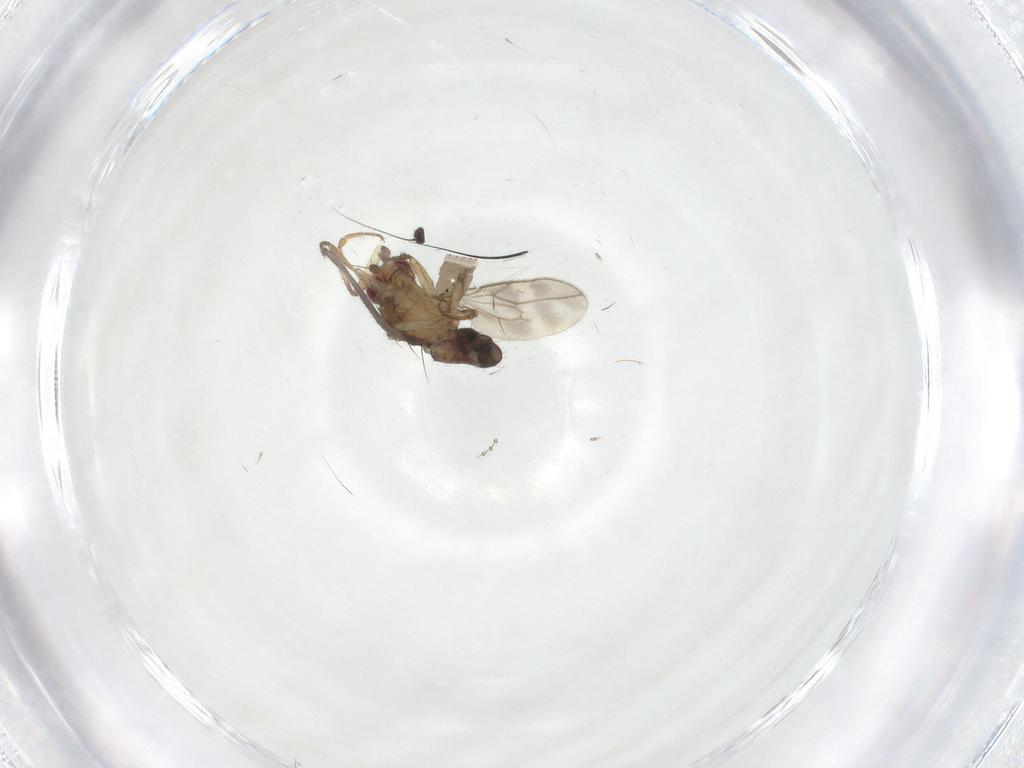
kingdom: Animalia
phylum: Arthropoda
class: Insecta
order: Diptera
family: Sphaeroceridae
